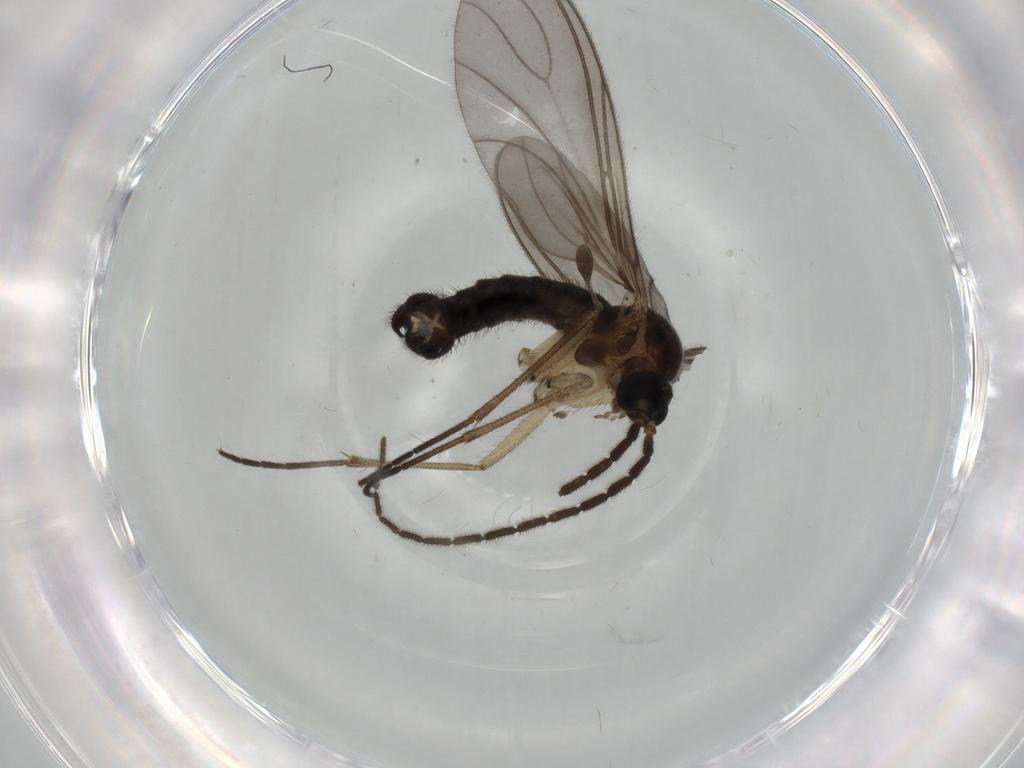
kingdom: Animalia
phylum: Arthropoda
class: Insecta
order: Diptera
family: Sciaridae
